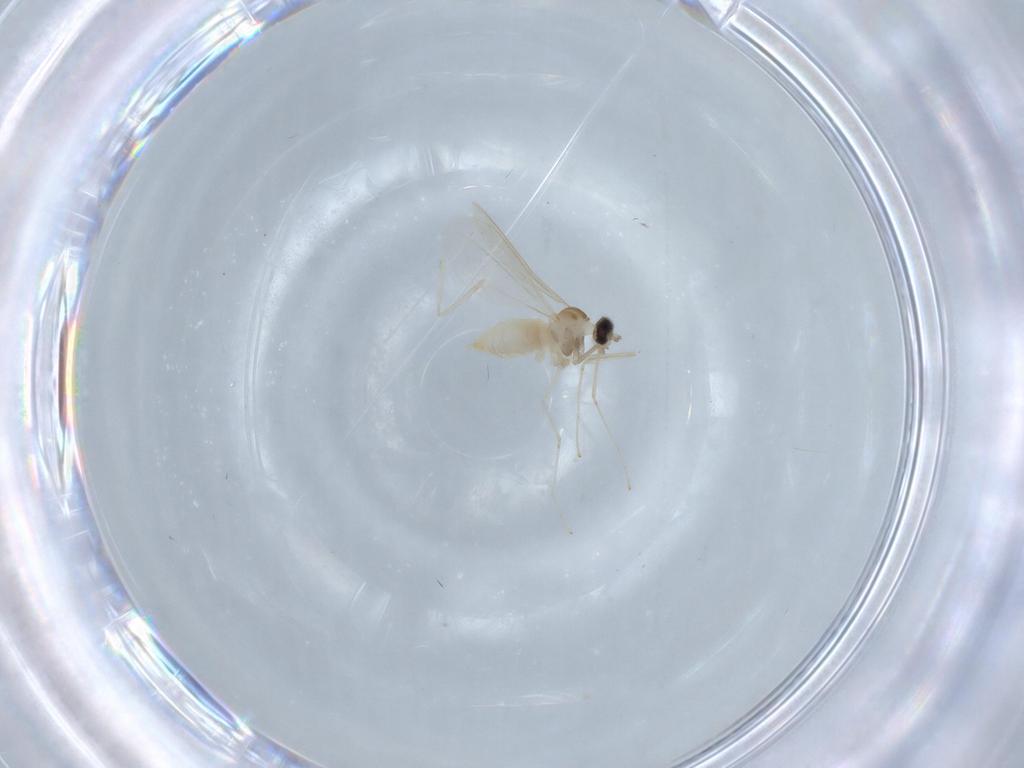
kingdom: Animalia
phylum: Arthropoda
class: Insecta
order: Diptera
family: Cecidomyiidae
